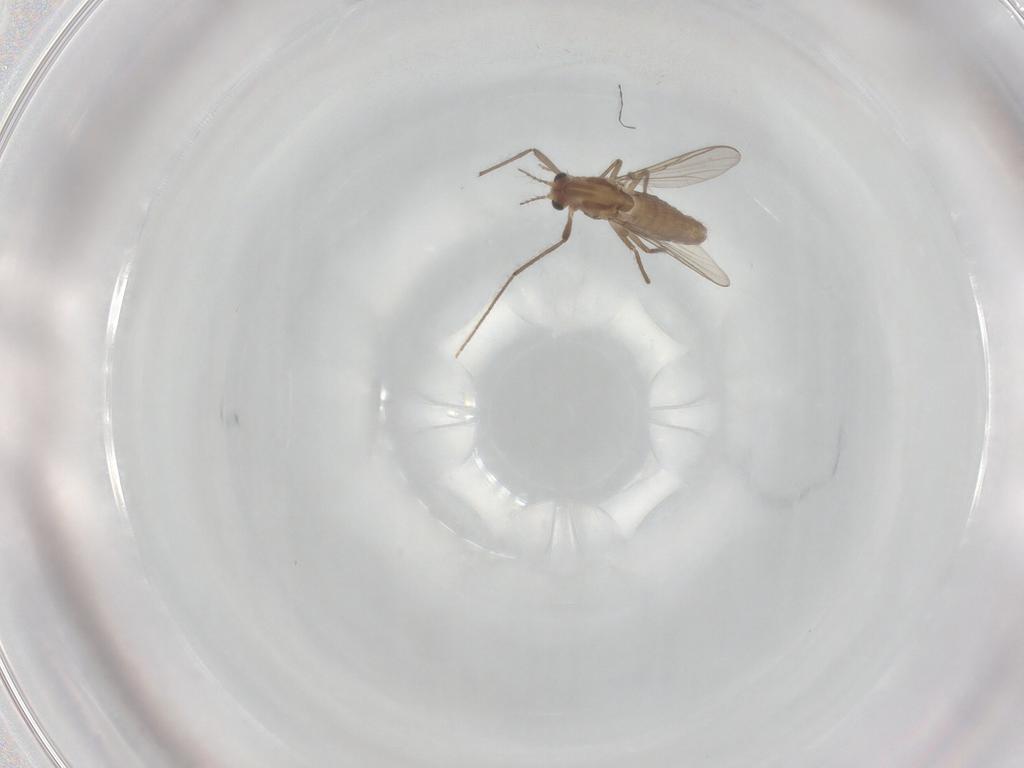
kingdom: Animalia
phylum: Arthropoda
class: Insecta
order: Diptera
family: Chironomidae
